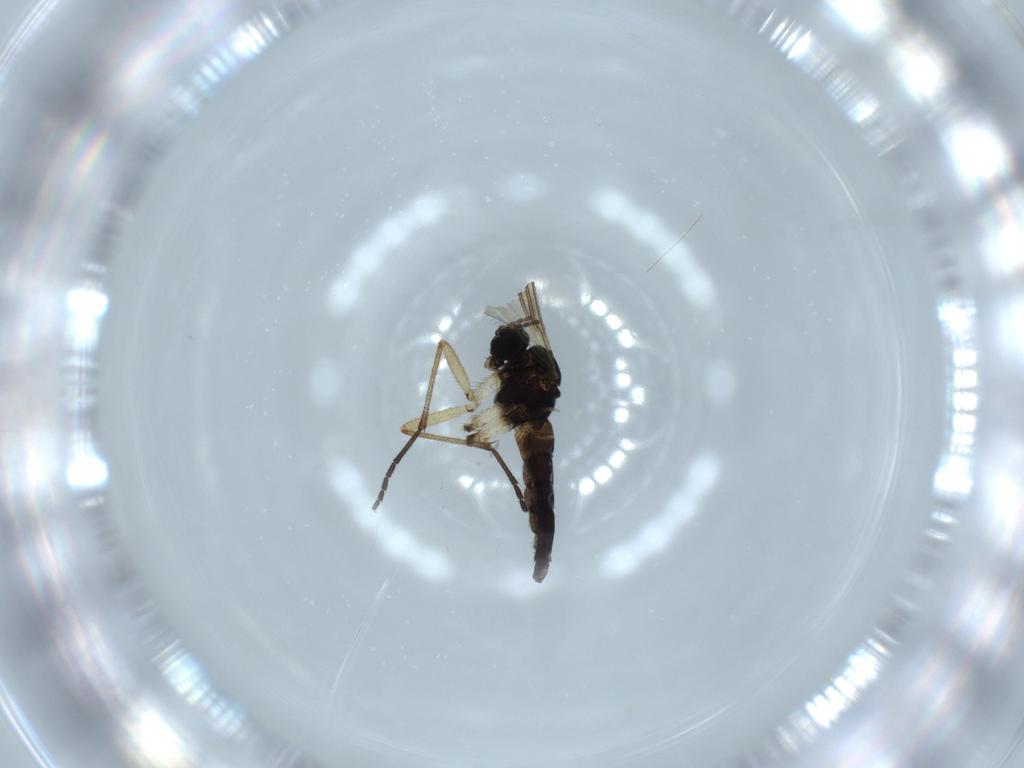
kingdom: Animalia
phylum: Arthropoda
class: Insecta
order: Diptera
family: Sciaridae
